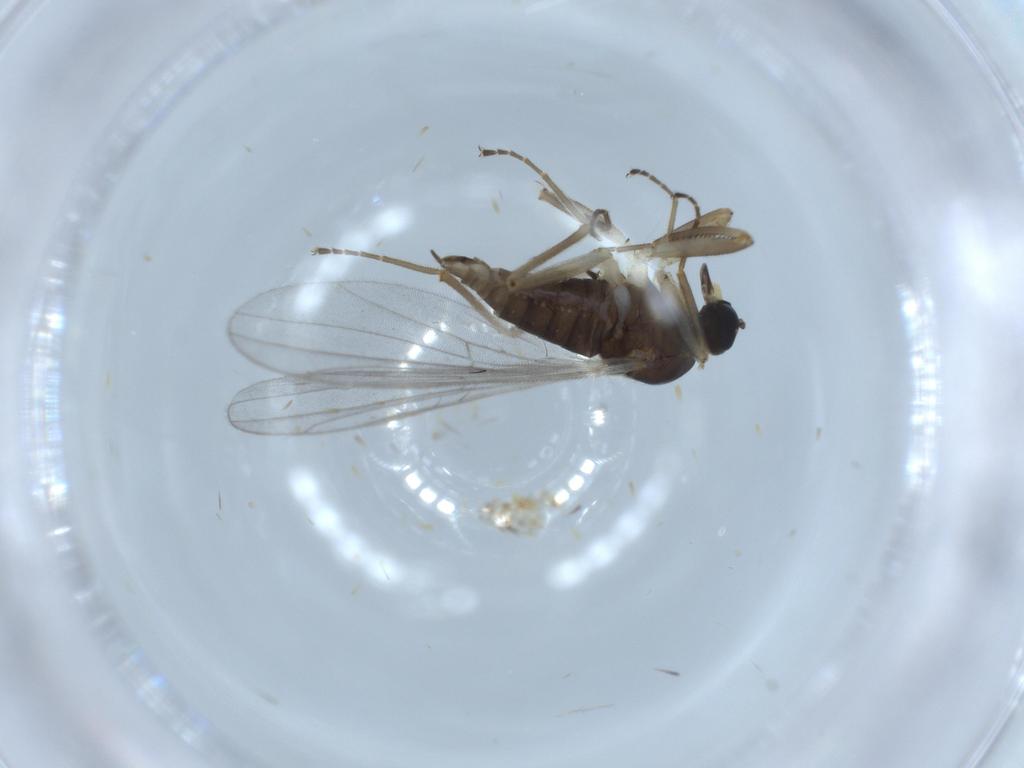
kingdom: Animalia
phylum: Arthropoda
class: Insecta
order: Diptera
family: Hybotidae
